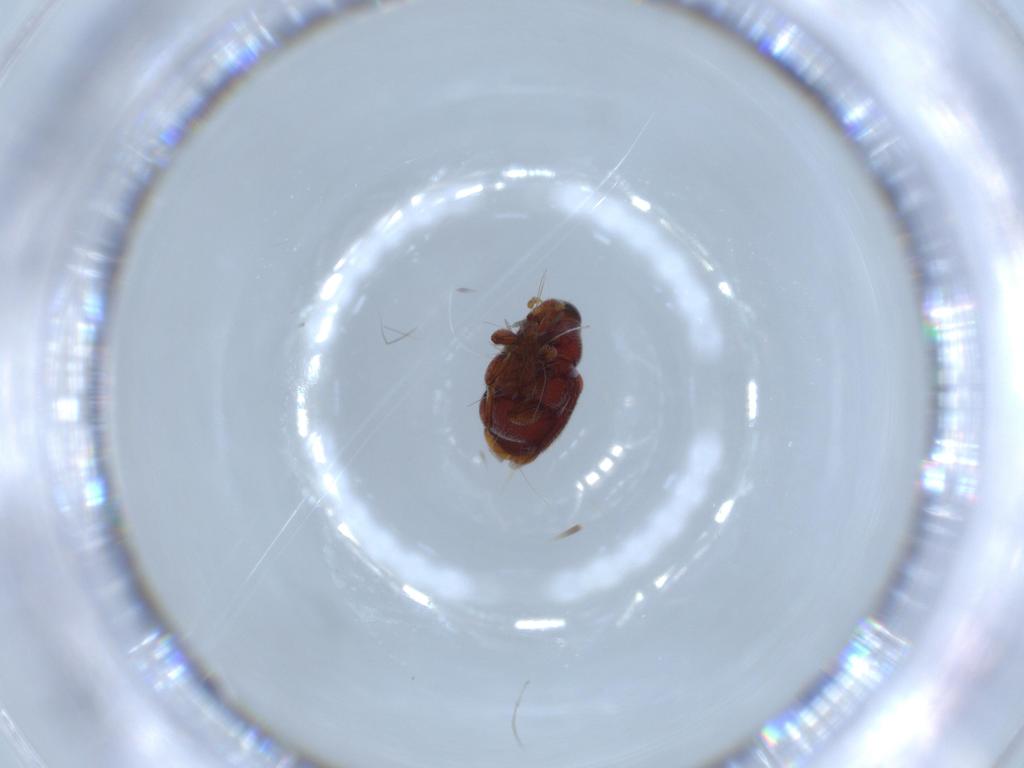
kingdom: Animalia
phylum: Arthropoda
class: Insecta
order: Coleoptera
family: Curculionidae
